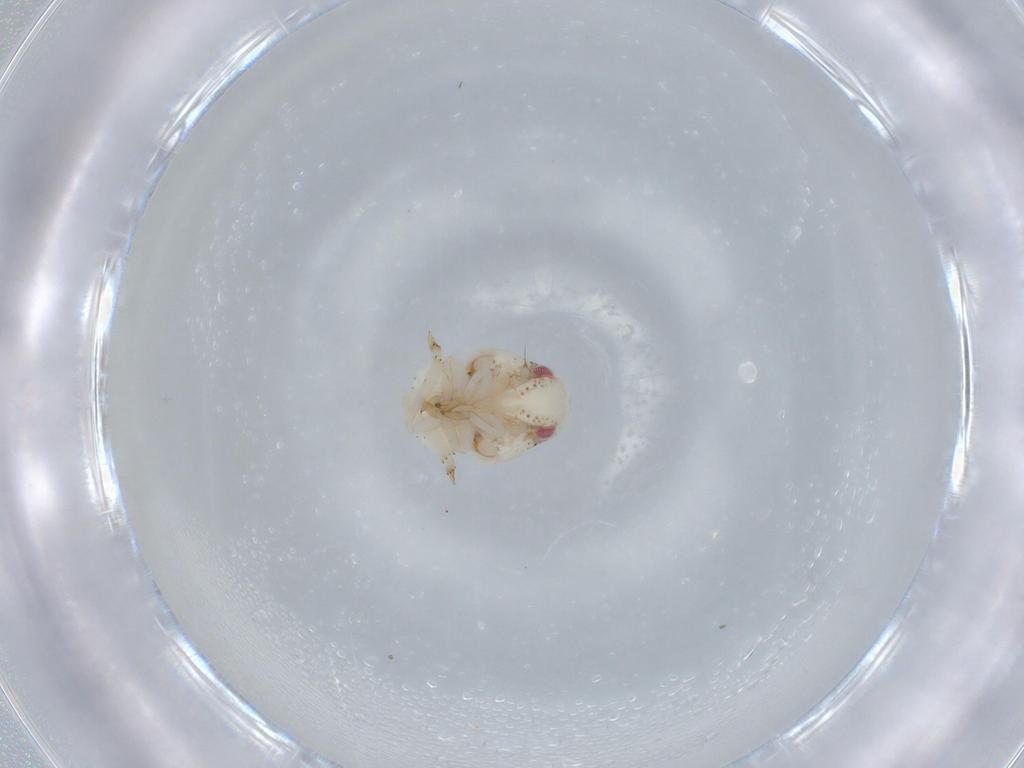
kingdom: Animalia
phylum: Arthropoda
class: Insecta
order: Hemiptera
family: Acanaloniidae
